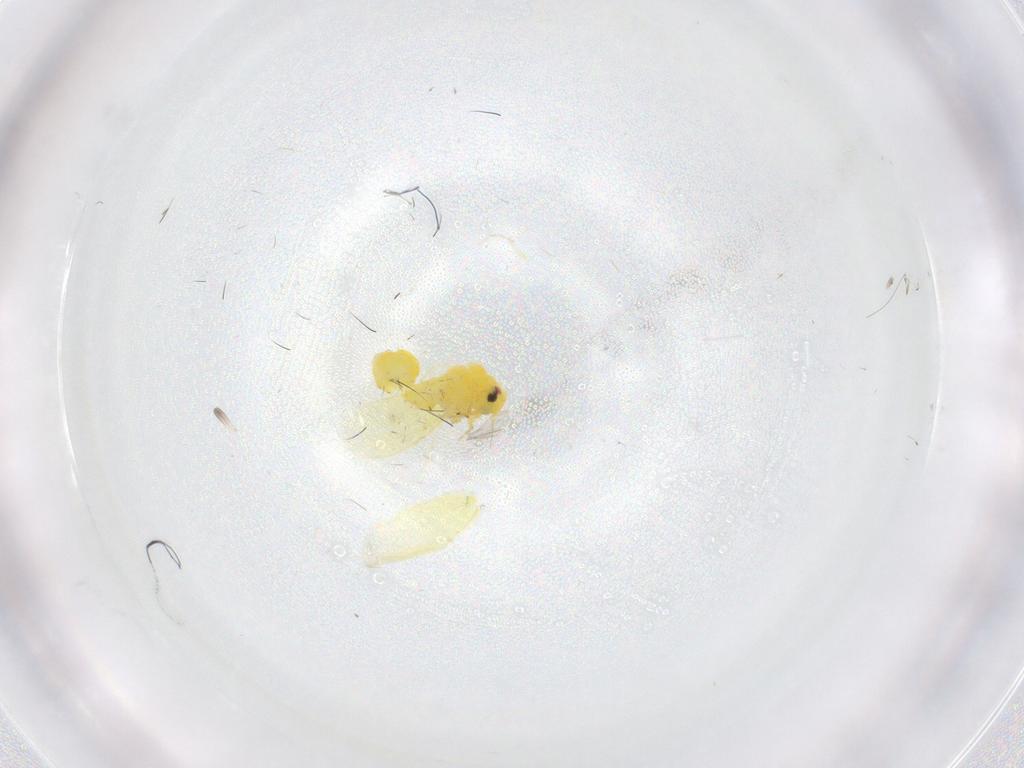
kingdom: Animalia
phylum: Arthropoda
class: Insecta
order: Hemiptera
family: Aleyrodidae
